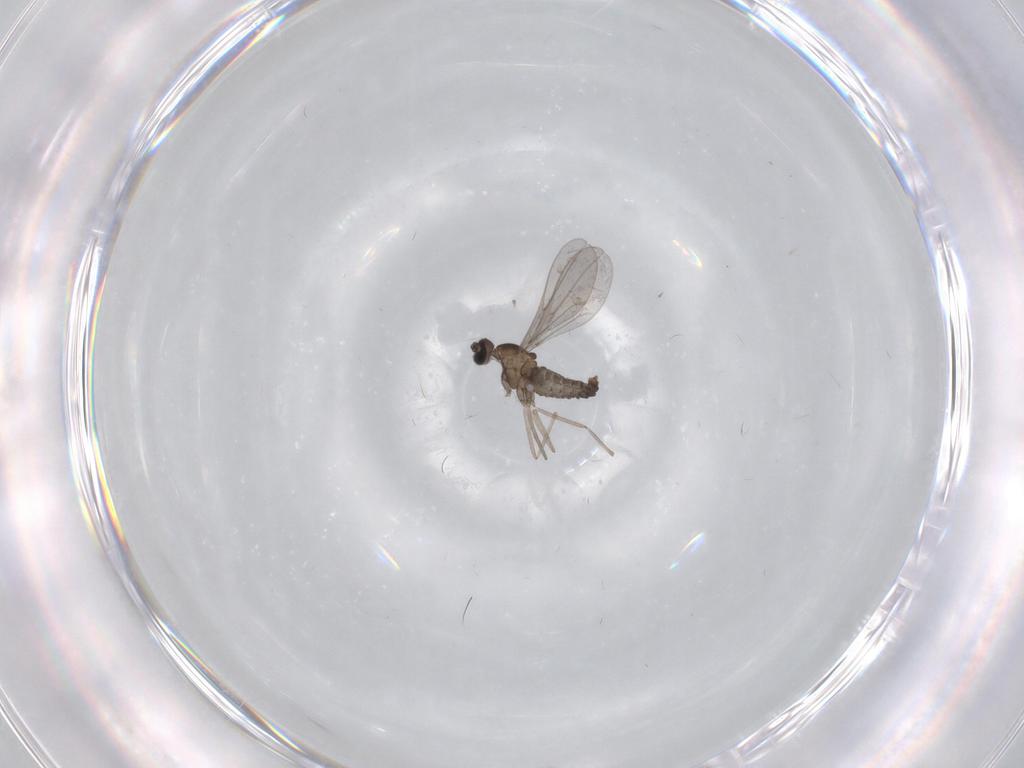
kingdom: Animalia
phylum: Arthropoda
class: Insecta
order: Diptera
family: Cecidomyiidae
